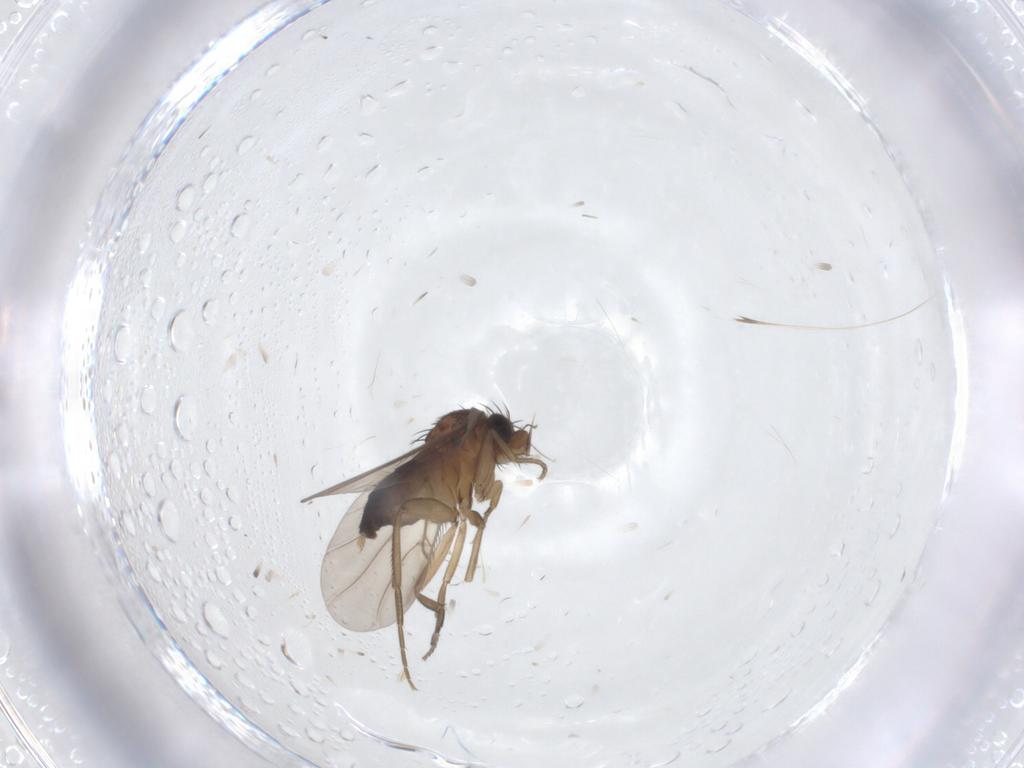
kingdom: Animalia
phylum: Arthropoda
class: Insecta
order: Diptera
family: Phoridae
